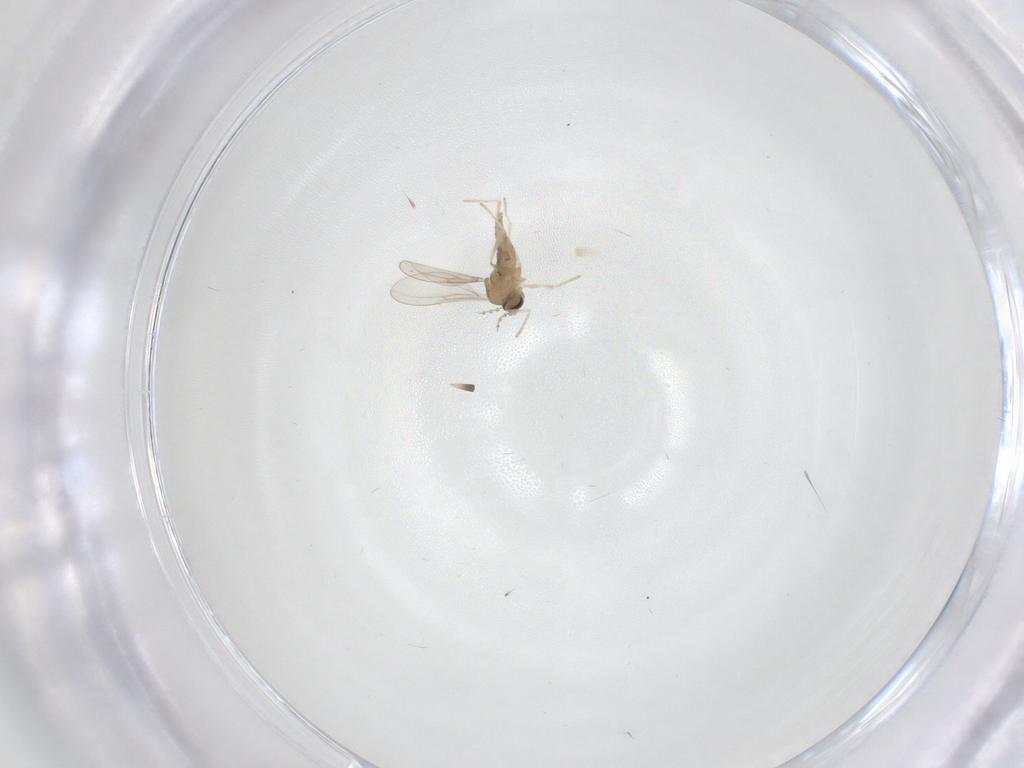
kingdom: Animalia
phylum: Arthropoda
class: Insecta
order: Diptera
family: Cecidomyiidae
